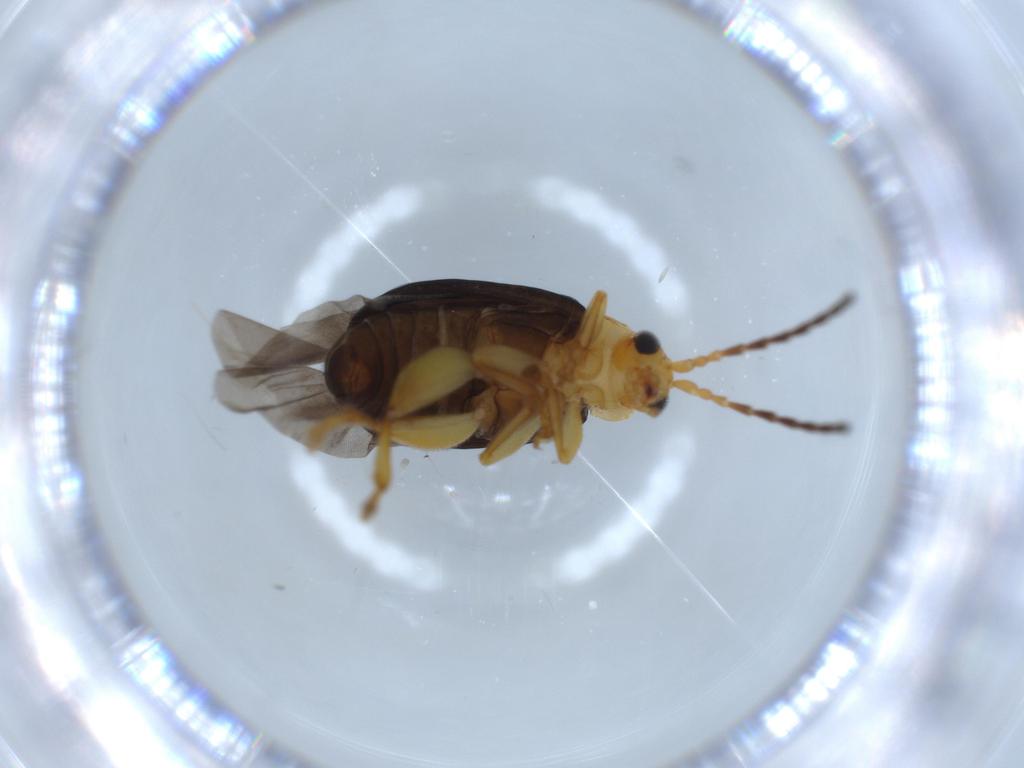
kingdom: Animalia
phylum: Arthropoda
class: Insecta
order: Coleoptera
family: Chrysomelidae
